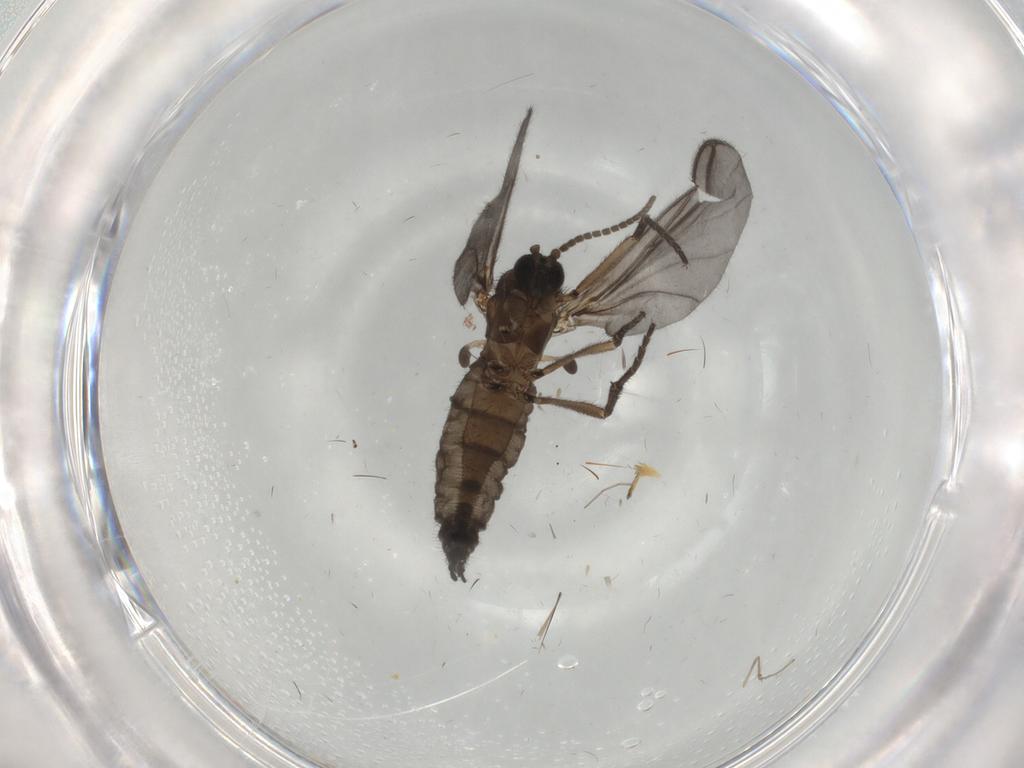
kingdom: Animalia
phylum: Arthropoda
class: Insecta
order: Diptera
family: Sciaridae
